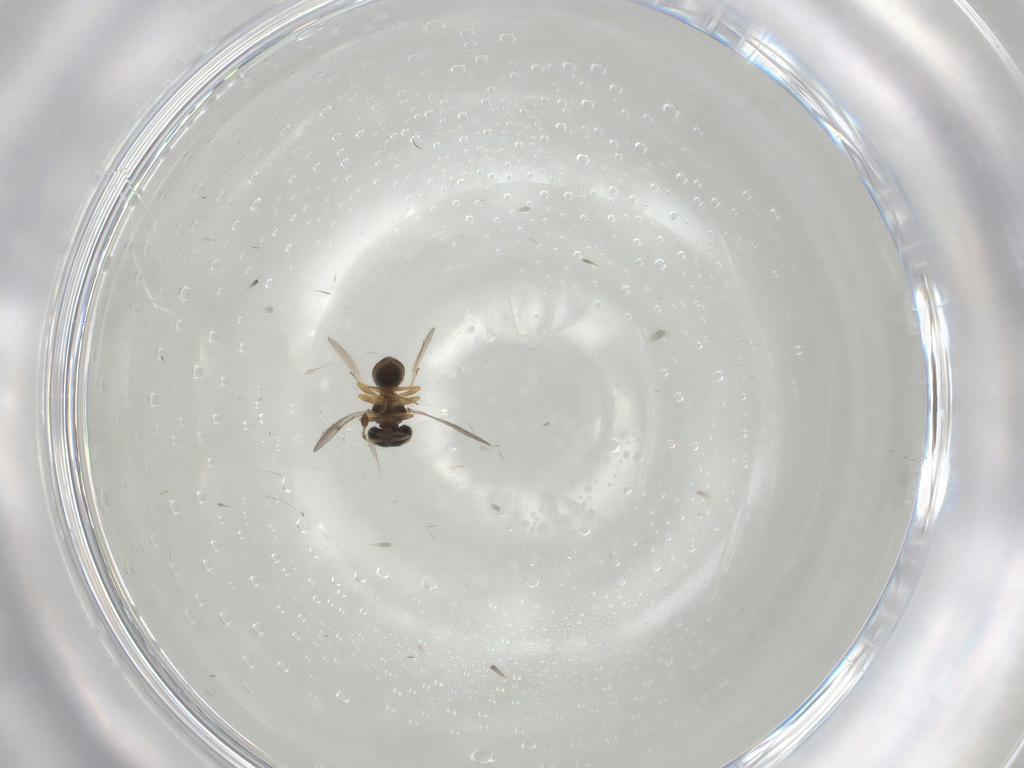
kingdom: Animalia
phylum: Arthropoda
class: Insecta
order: Hymenoptera
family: Scelionidae
